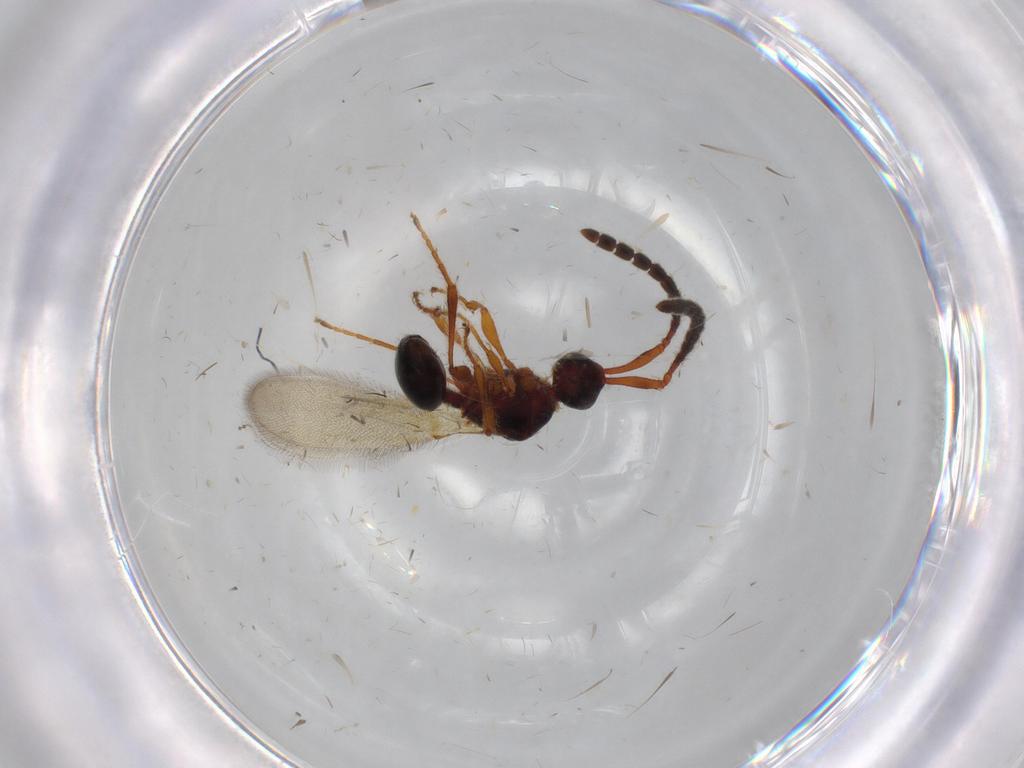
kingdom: Animalia
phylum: Arthropoda
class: Insecta
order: Hymenoptera
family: Diapriidae
